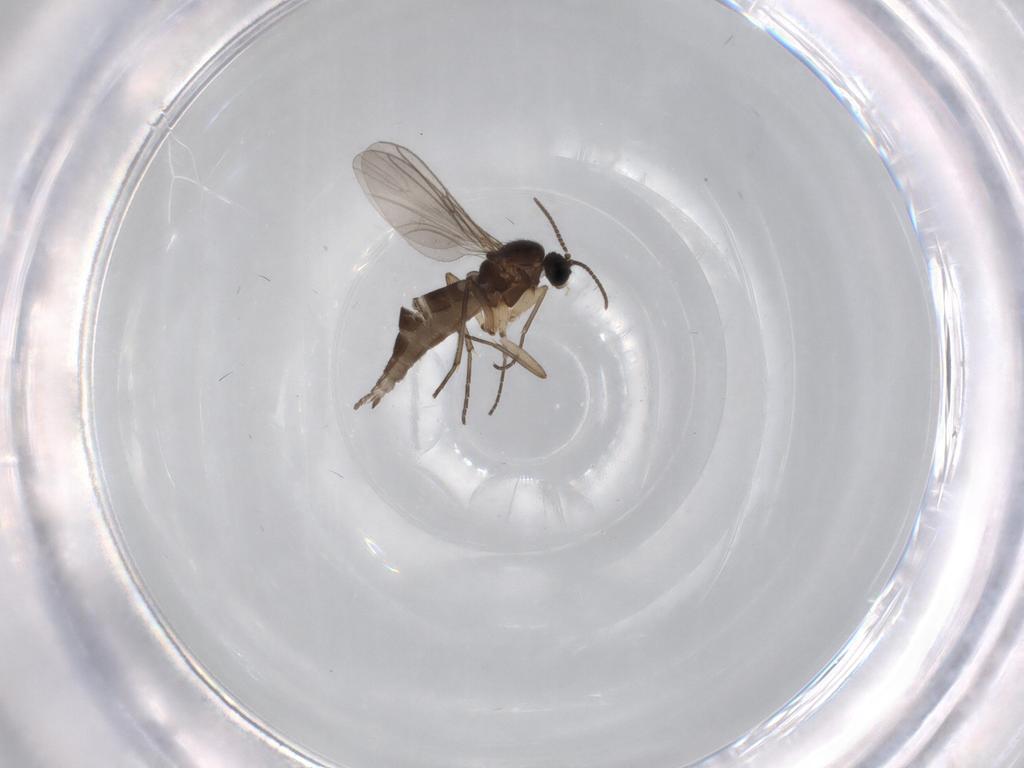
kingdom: Animalia
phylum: Arthropoda
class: Insecta
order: Diptera
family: Sciaridae
